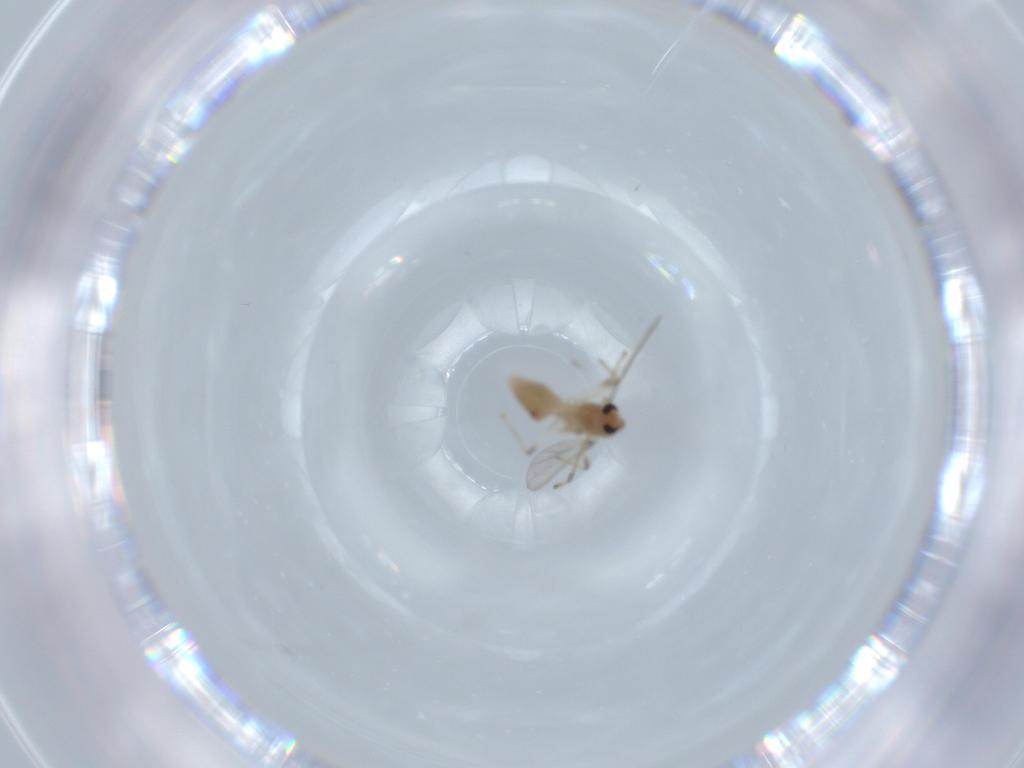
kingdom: Animalia
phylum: Arthropoda
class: Insecta
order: Diptera
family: Chironomidae
